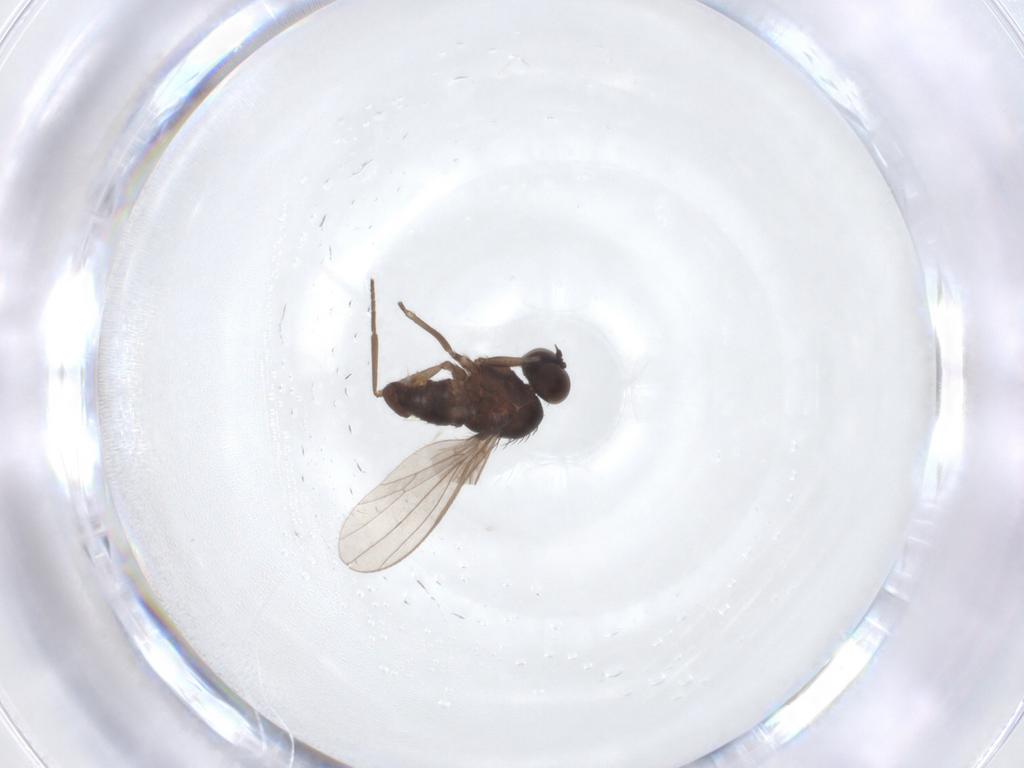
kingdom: Animalia
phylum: Arthropoda
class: Insecta
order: Diptera
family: Dolichopodidae
